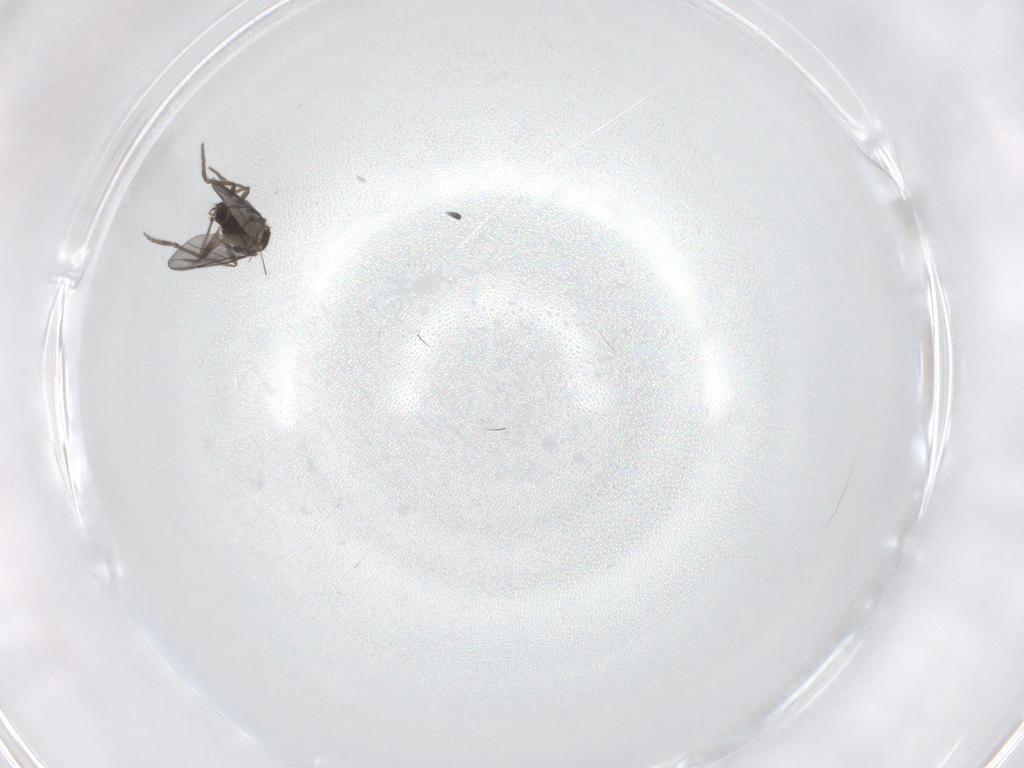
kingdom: Animalia
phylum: Arthropoda
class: Insecta
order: Diptera
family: Phoridae
